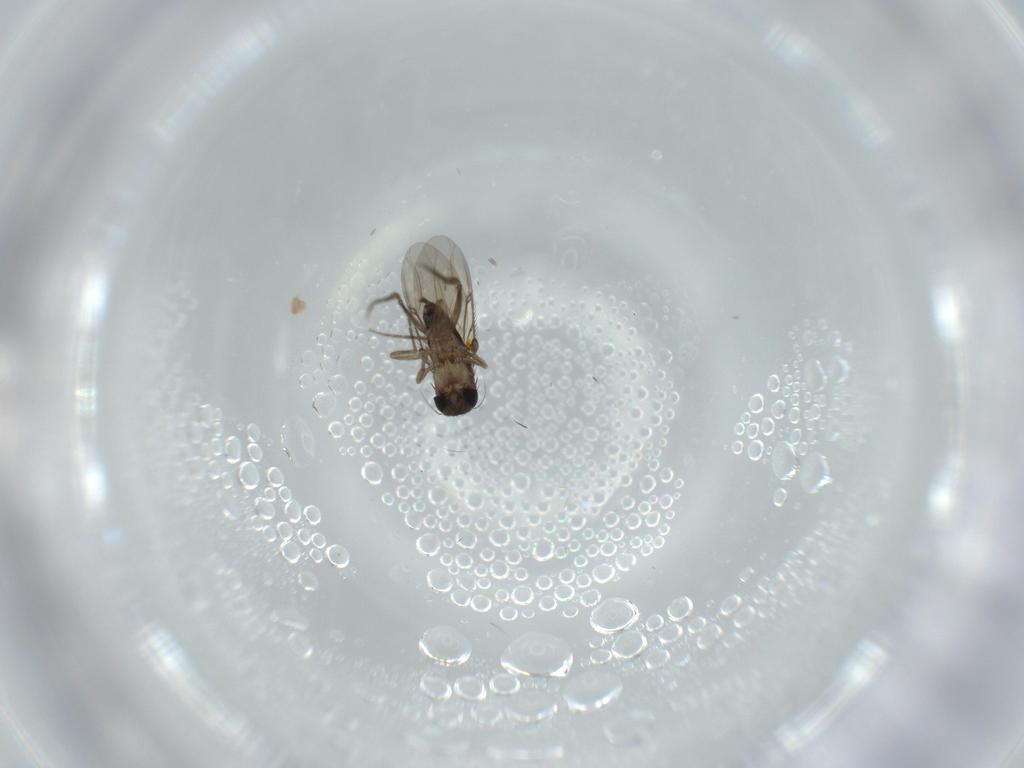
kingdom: Animalia
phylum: Arthropoda
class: Insecta
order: Diptera
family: Phoridae
